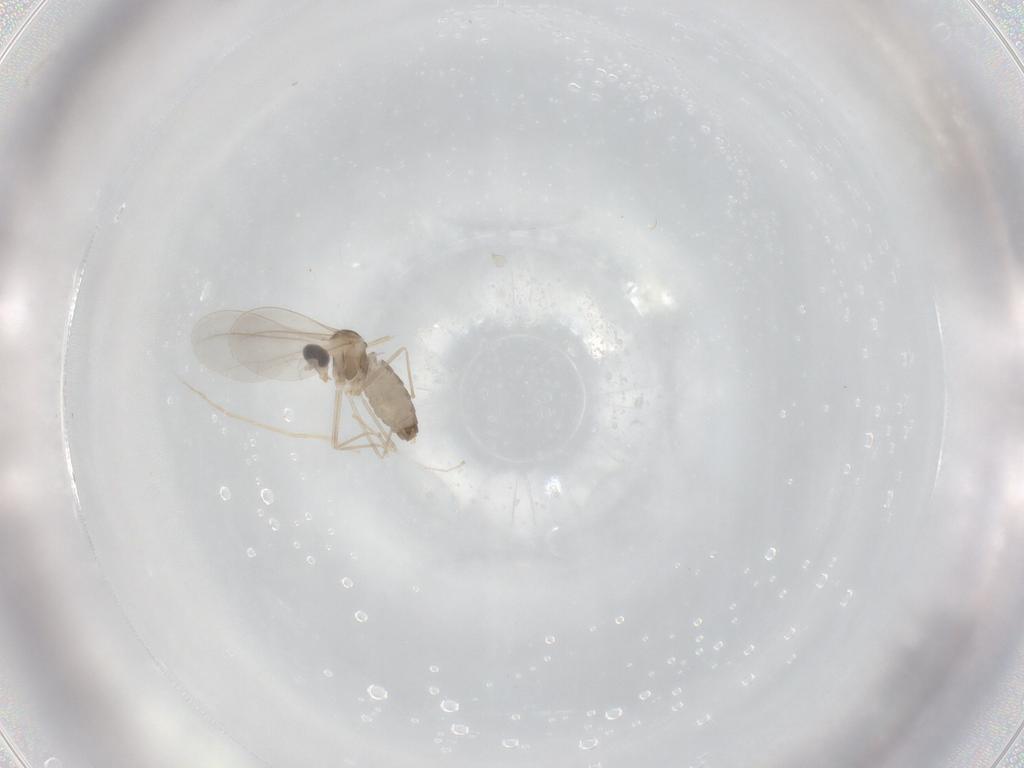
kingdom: Animalia
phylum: Arthropoda
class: Insecta
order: Diptera
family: Cecidomyiidae
